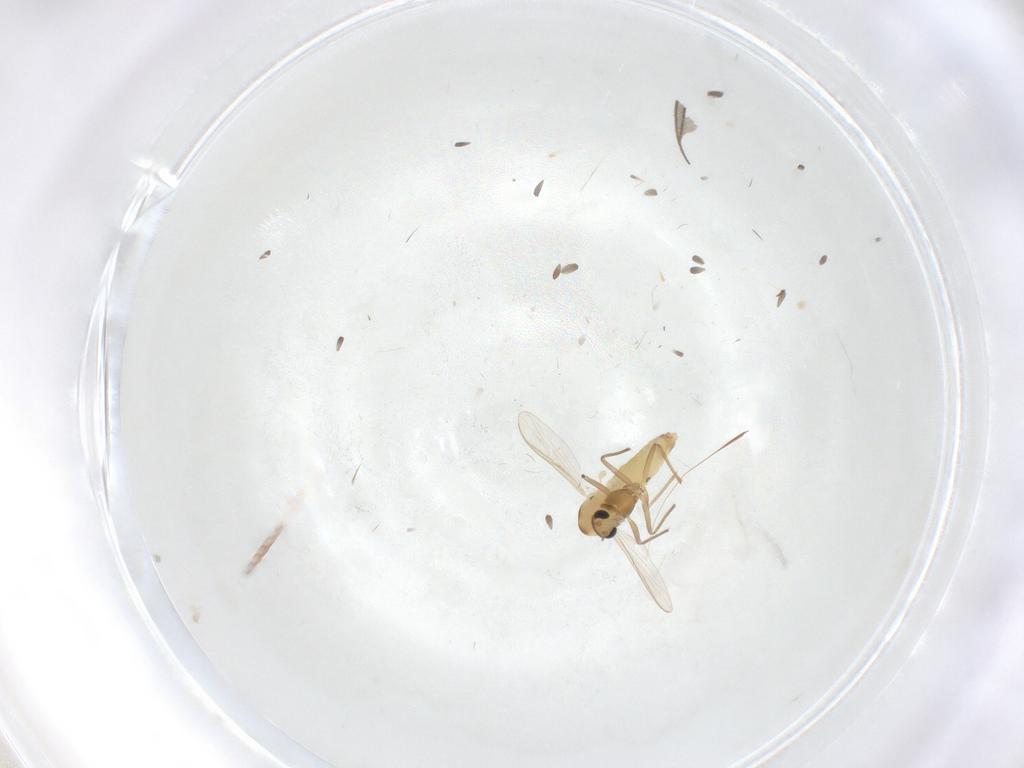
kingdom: Animalia
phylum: Arthropoda
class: Insecta
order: Diptera
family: Chironomidae
